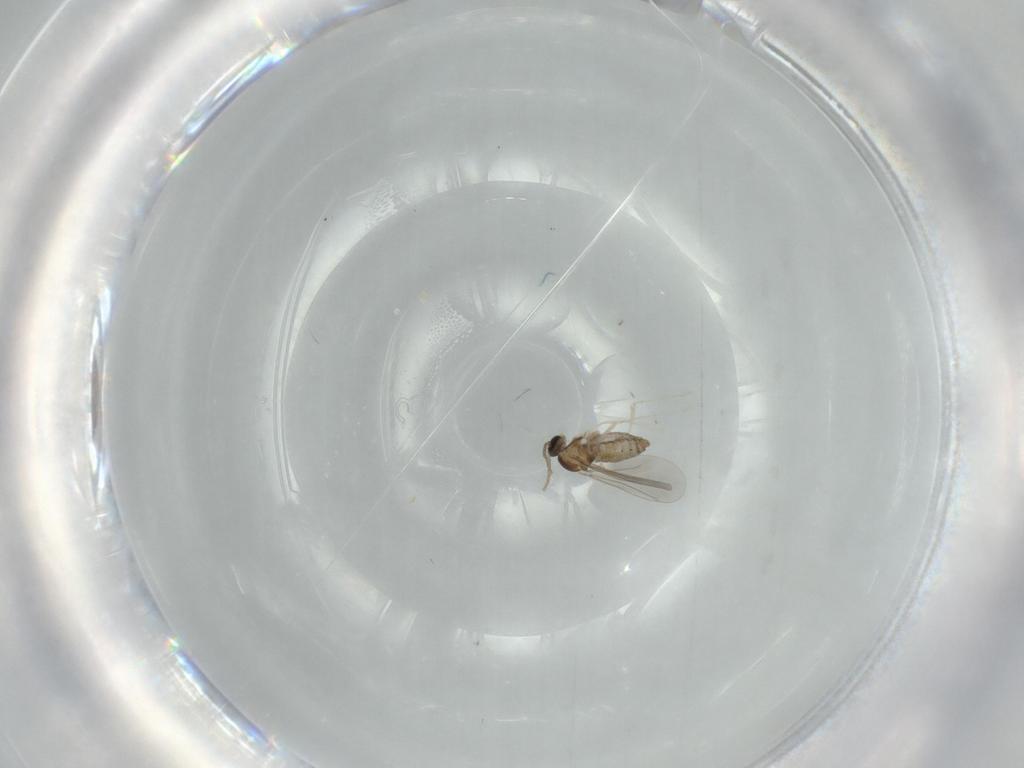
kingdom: Animalia
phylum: Arthropoda
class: Insecta
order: Diptera
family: Cecidomyiidae
